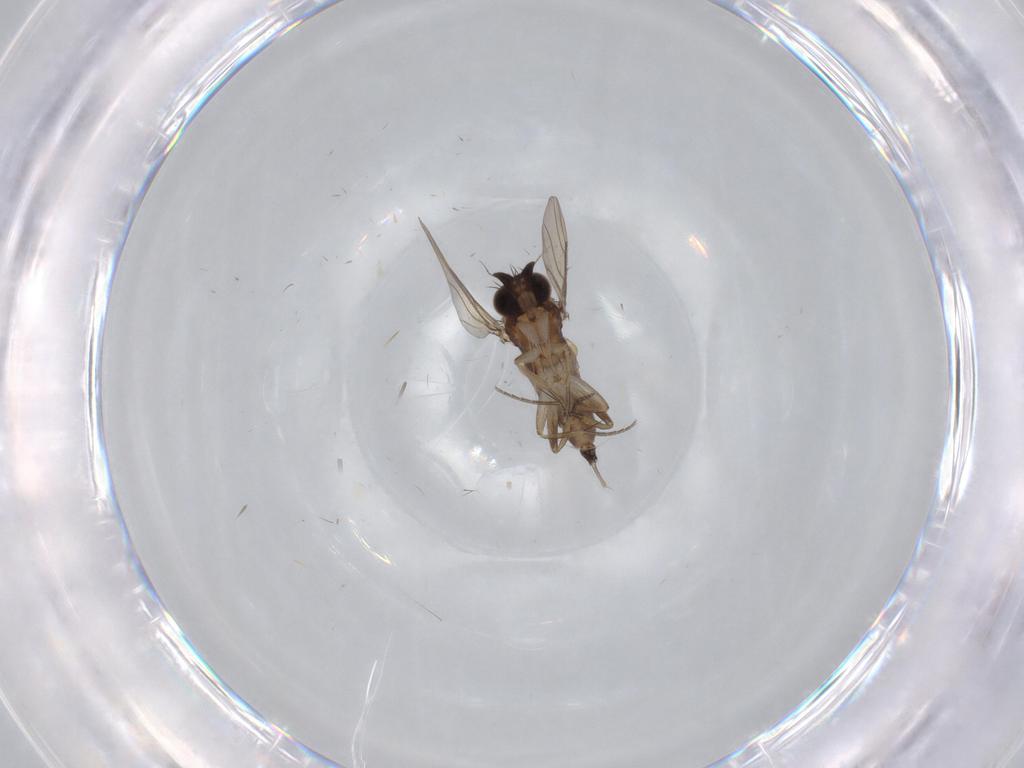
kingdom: Animalia
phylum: Arthropoda
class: Insecta
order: Diptera
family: Phoridae
